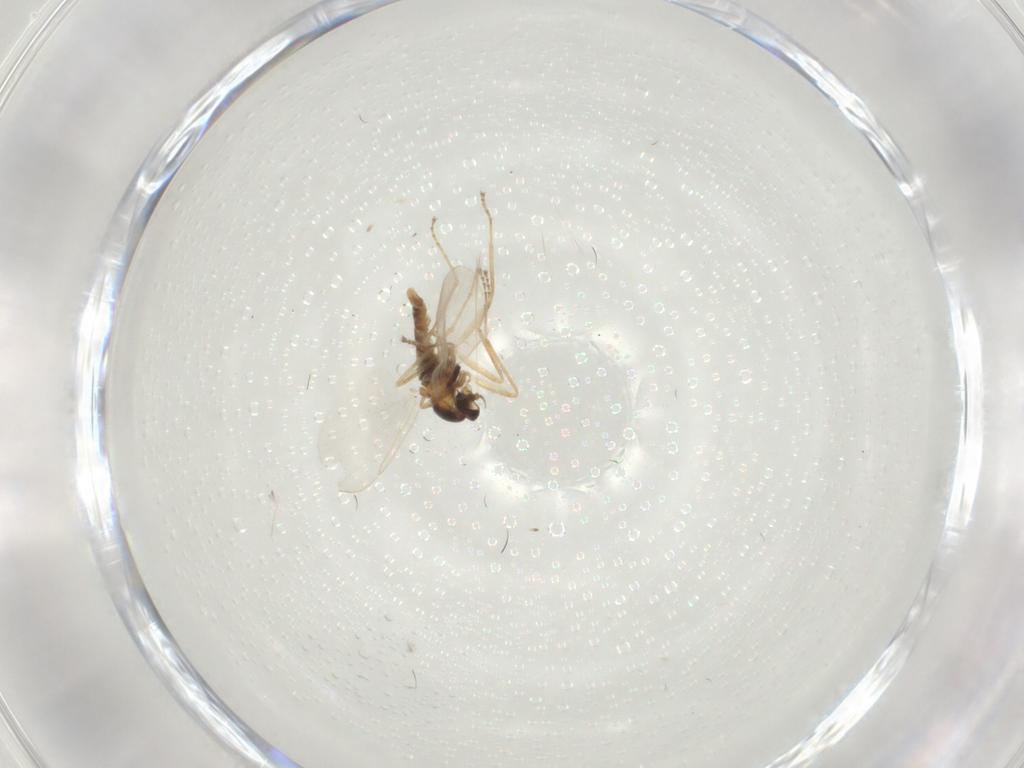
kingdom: Animalia
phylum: Arthropoda
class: Insecta
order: Diptera
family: Cecidomyiidae
